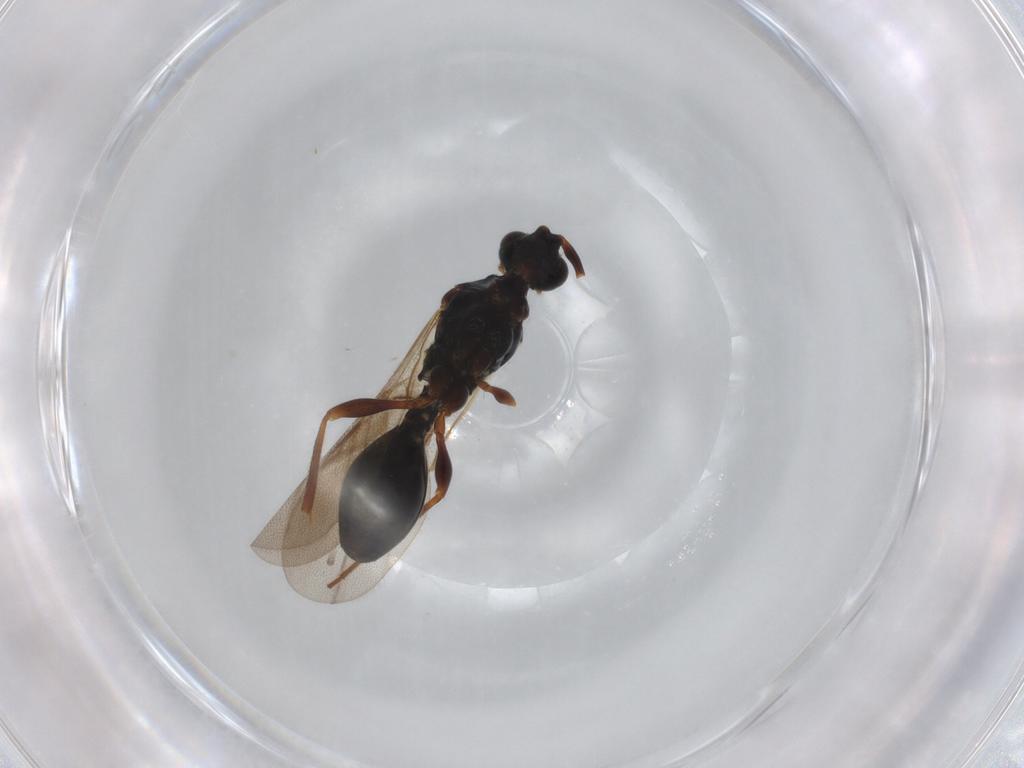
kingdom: Animalia
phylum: Arthropoda
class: Insecta
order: Hymenoptera
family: Diapriidae
